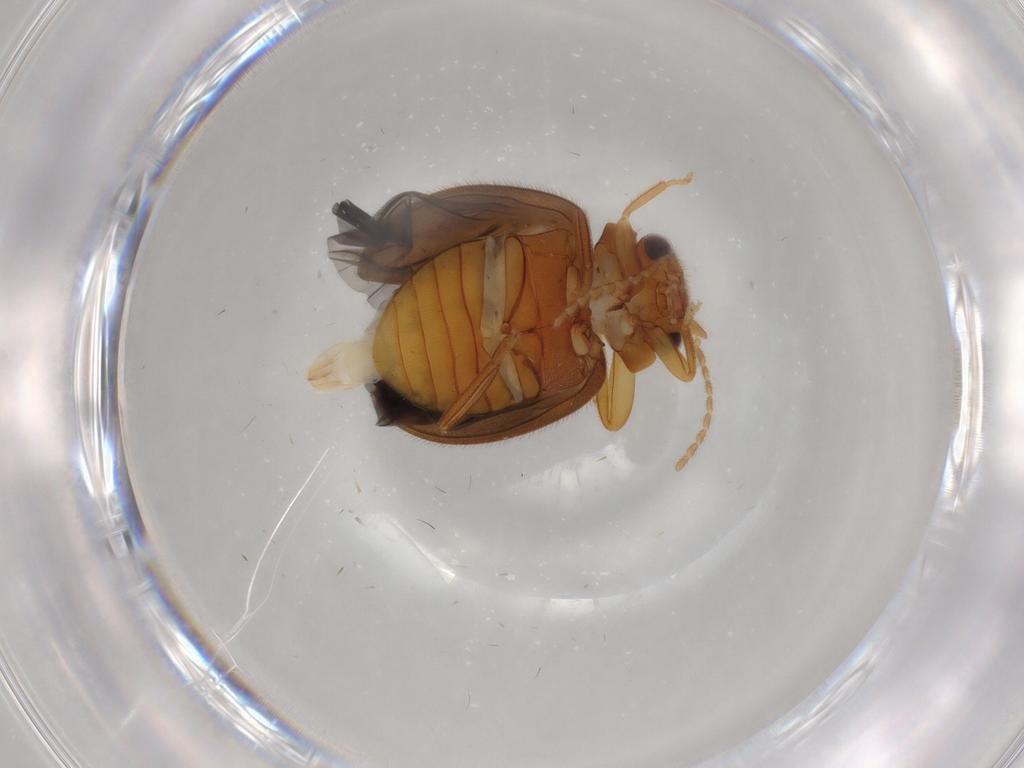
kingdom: Animalia
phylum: Arthropoda
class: Insecta
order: Coleoptera
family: Scirtidae
